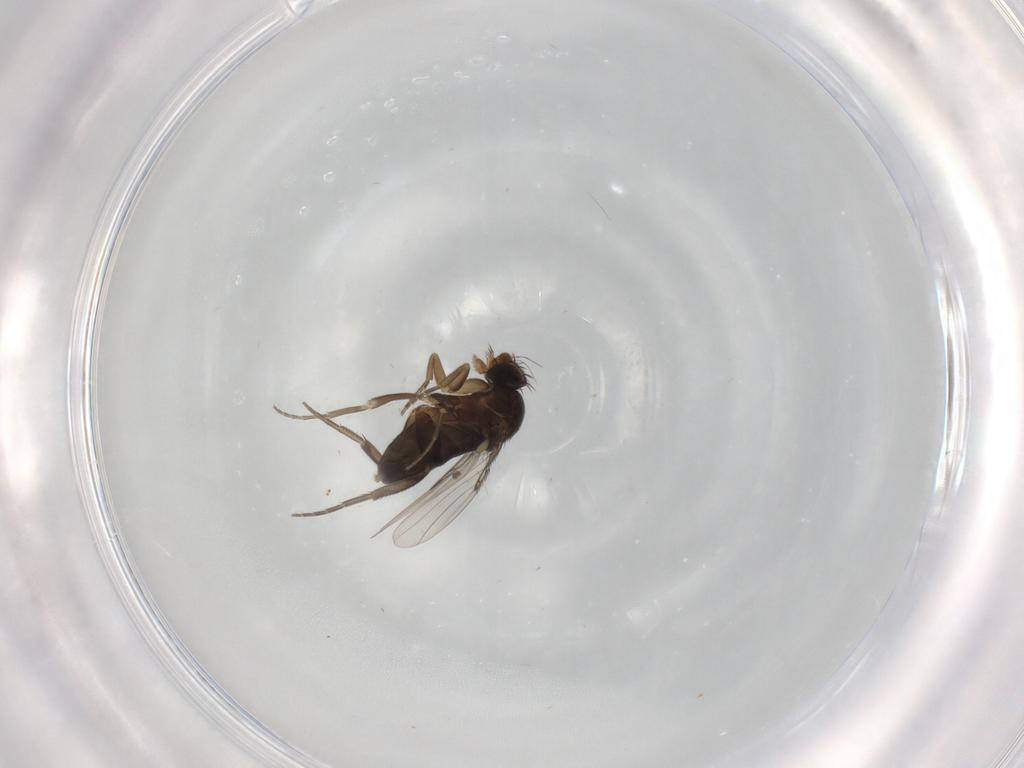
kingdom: Animalia
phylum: Arthropoda
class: Insecta
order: Diptera
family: Phoridae
